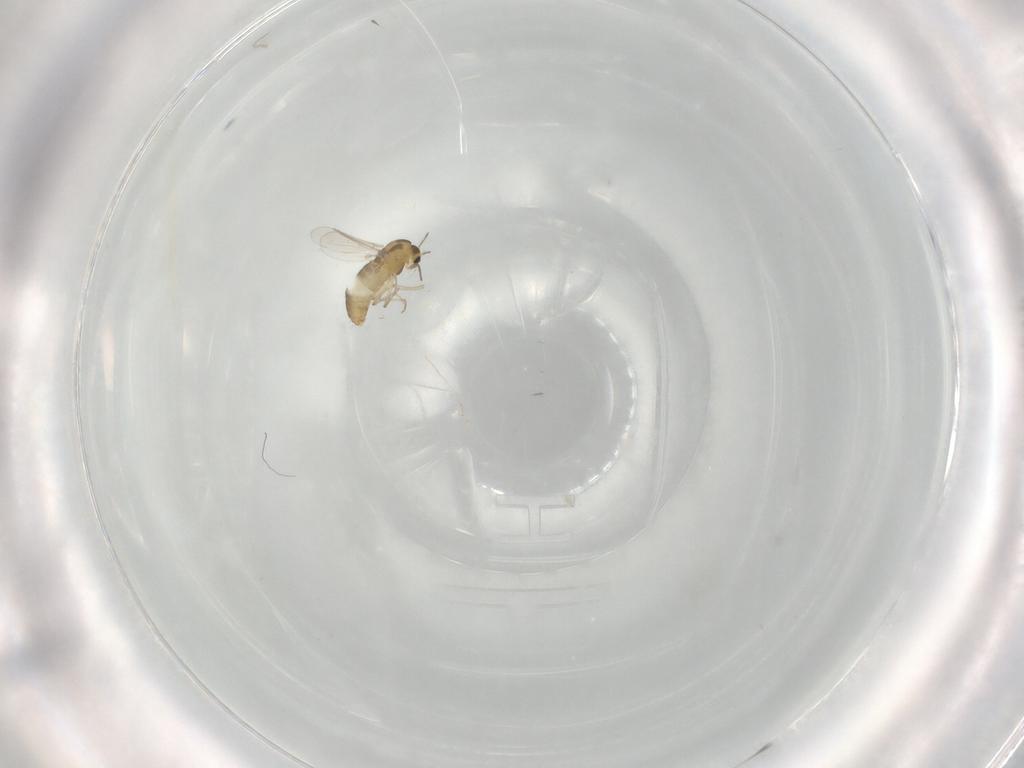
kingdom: Animalia
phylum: Arthropoda
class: Insecta
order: Diptera
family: Chironomidae
